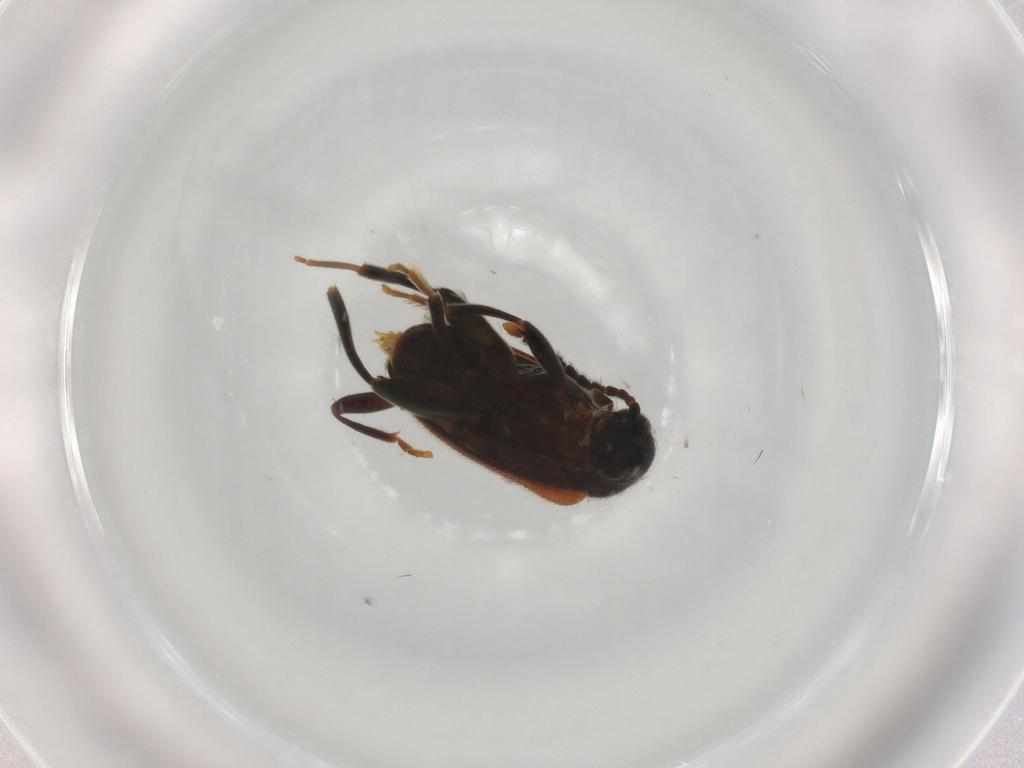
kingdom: Animalia
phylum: Arthropoda
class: Insecta
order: Coleoptera
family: Aderidae
